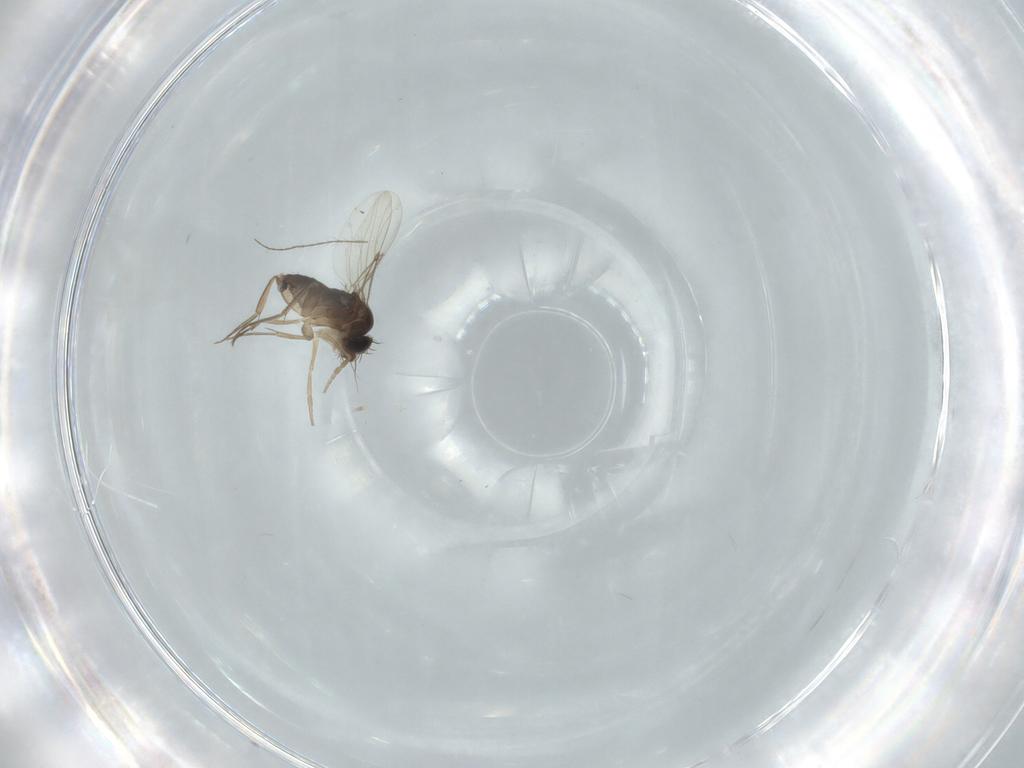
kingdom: Animalia
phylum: Arthropoda
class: Insecta
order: Diptera
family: Phoridae
